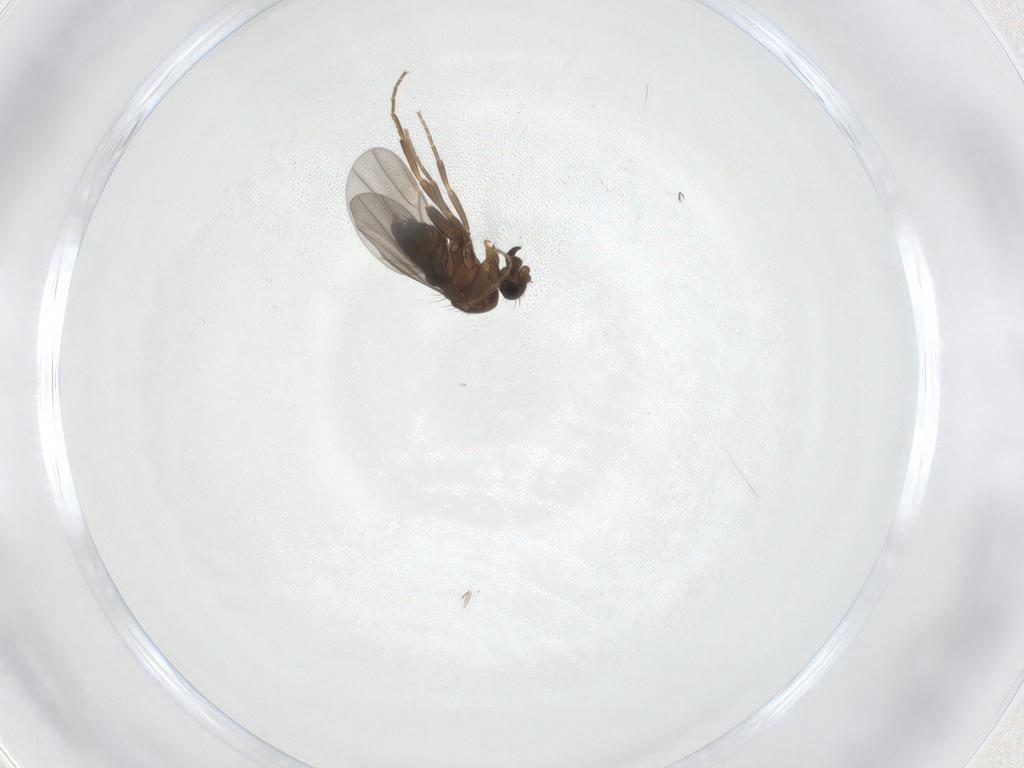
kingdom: Animalia
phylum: Arthropoda
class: Insecta
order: Diptera
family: Phoridae
